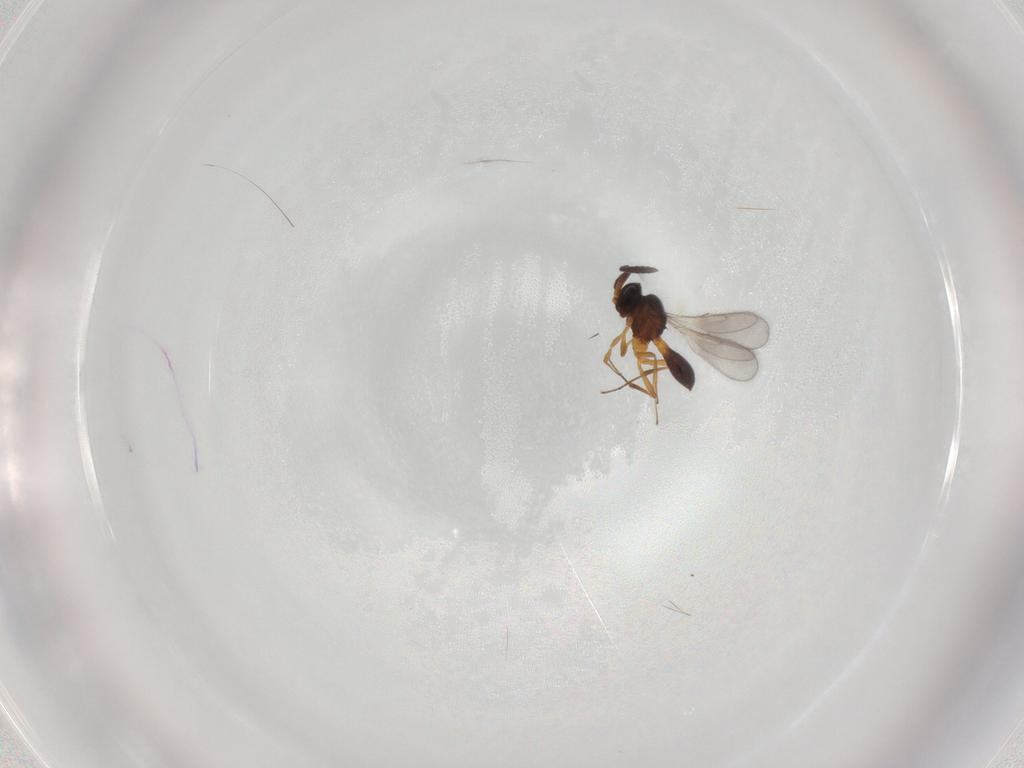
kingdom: Animalia
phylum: Arthropoda
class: Insecta
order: Hymenoptera
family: Scelionidae
